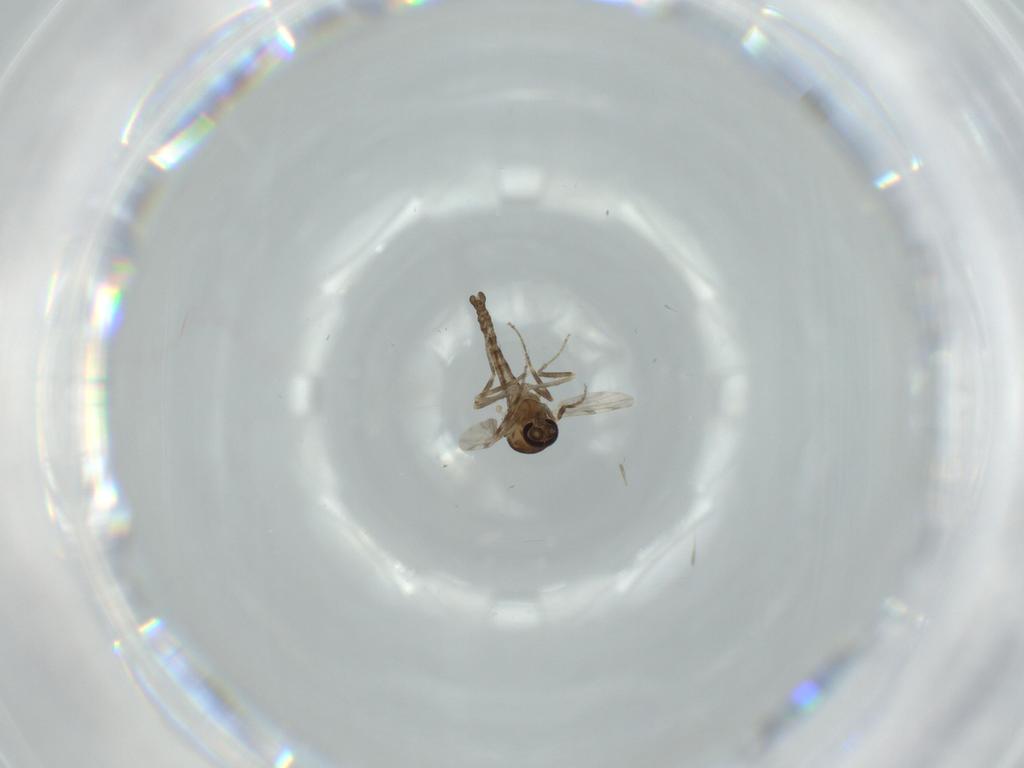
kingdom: Animalia
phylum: Arthropoda
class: Insecta
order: Diptera
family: Ceratopogonidae
